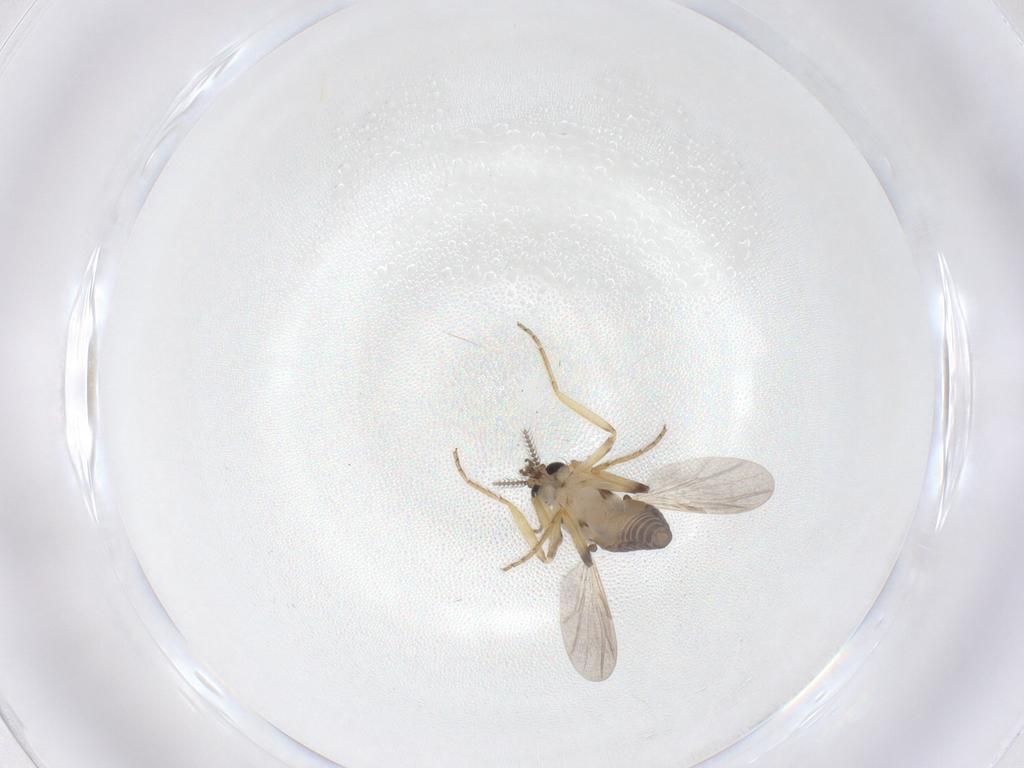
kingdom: Animalia
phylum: Arthropoda
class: Insecta
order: Diptera
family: Ceratopogonidae
